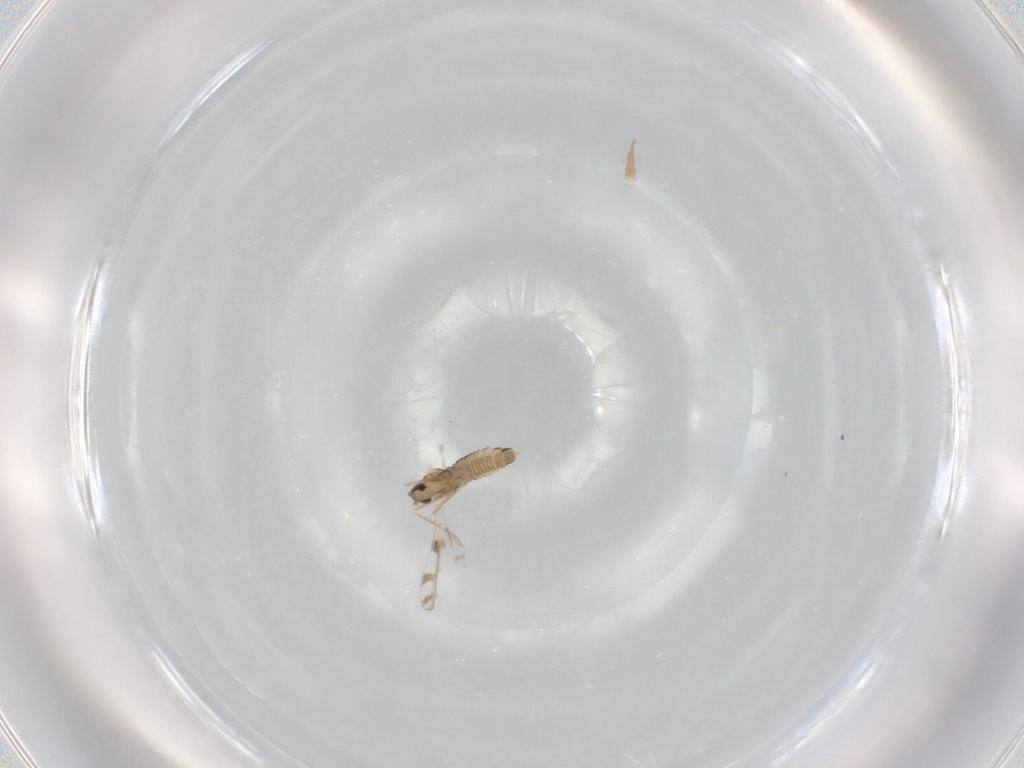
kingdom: Animalia
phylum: Arthropoda
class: Insecta
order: Diptera
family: Cecidomyiidae
